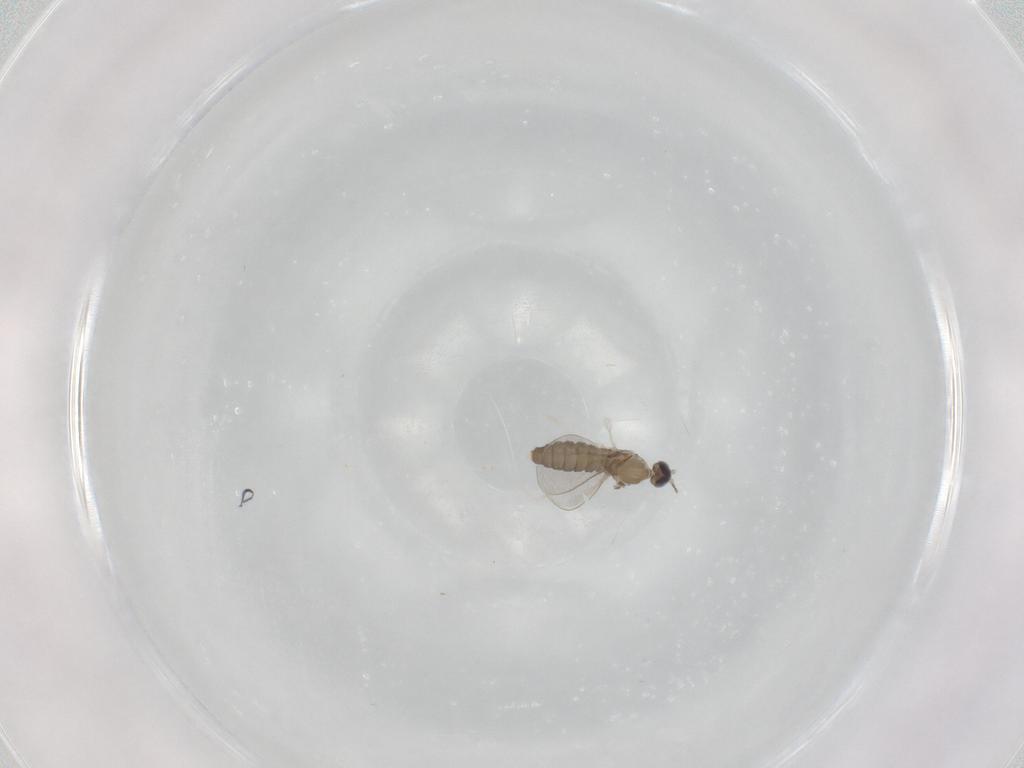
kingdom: Animalia
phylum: Arthropoda
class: Insecta
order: Diptera
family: Cecidomyiidae
